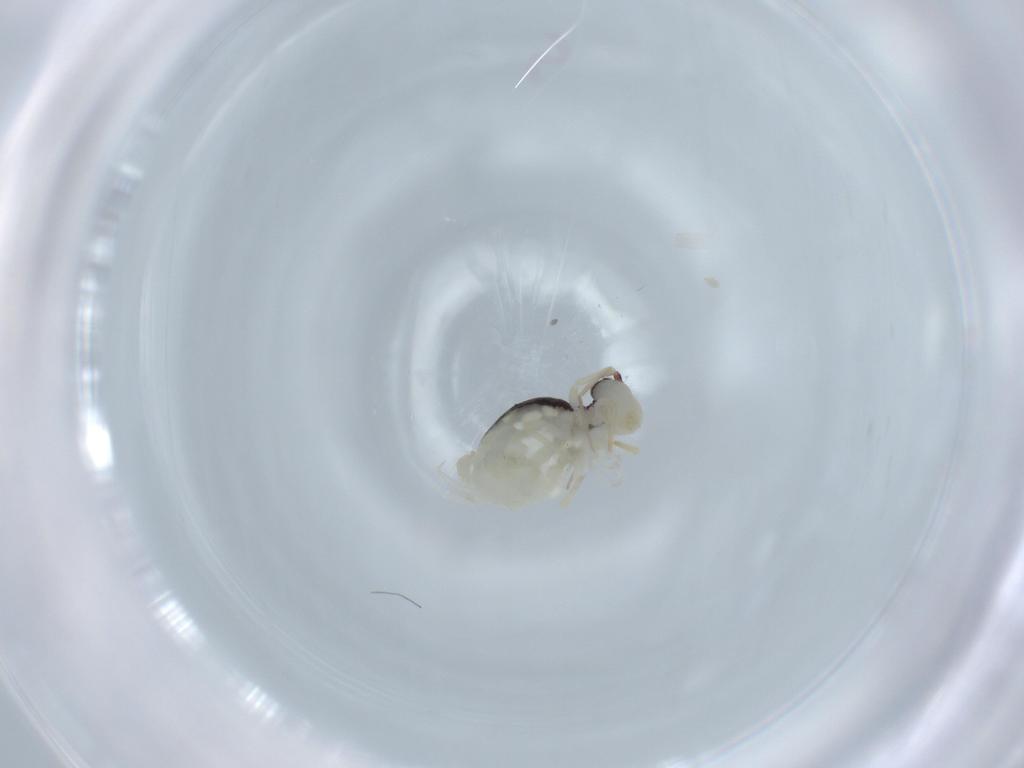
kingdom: Animalia
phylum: Arthropoda
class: Collembola
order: Symphypleona
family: Bourletiellidae
